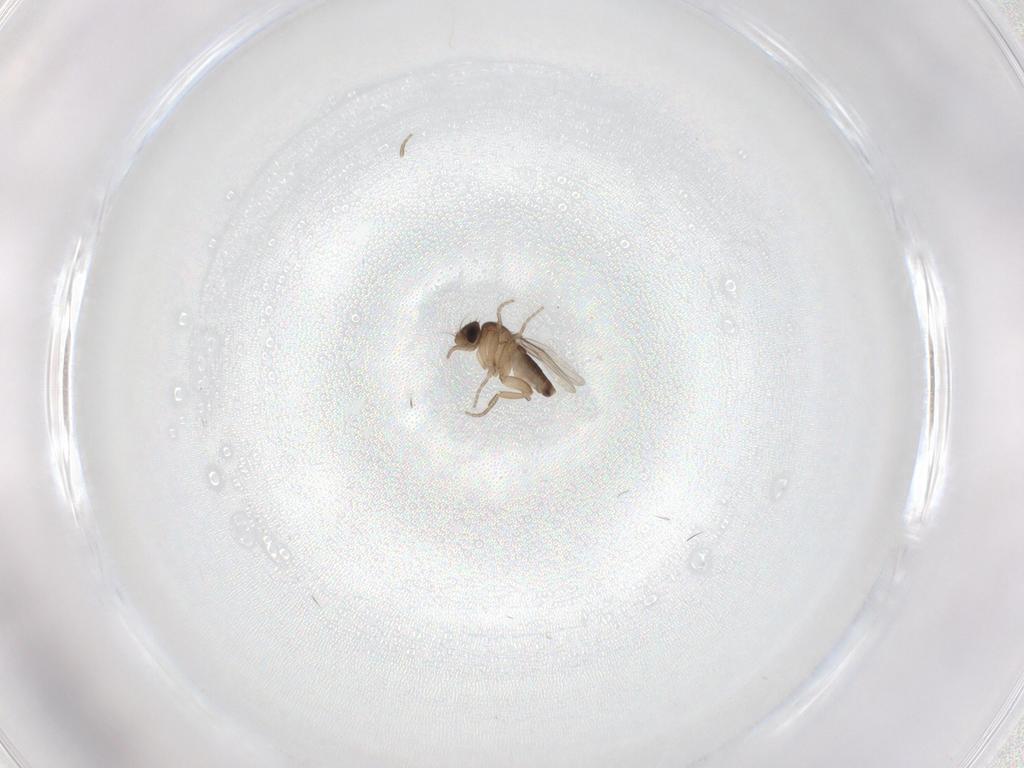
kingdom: Animalia
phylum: Arthropoda
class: Insecta
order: Diptera
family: Phoridae
